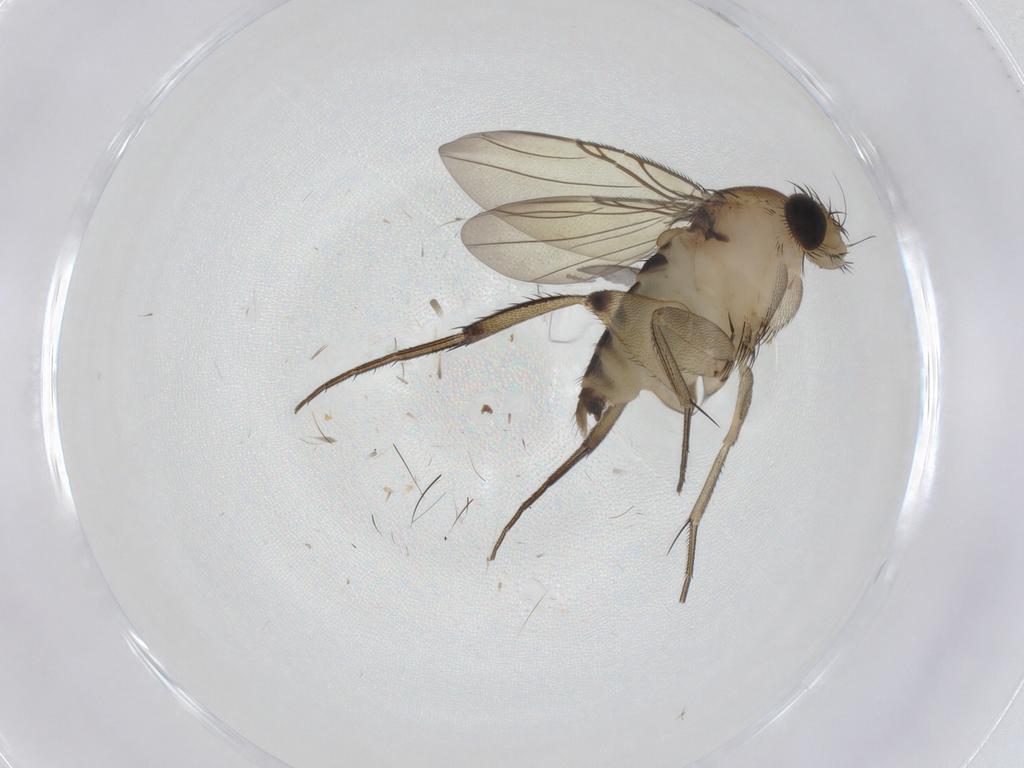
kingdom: Animalia
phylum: Arthropoda
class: Insecta
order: Diptera
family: Phoridae
